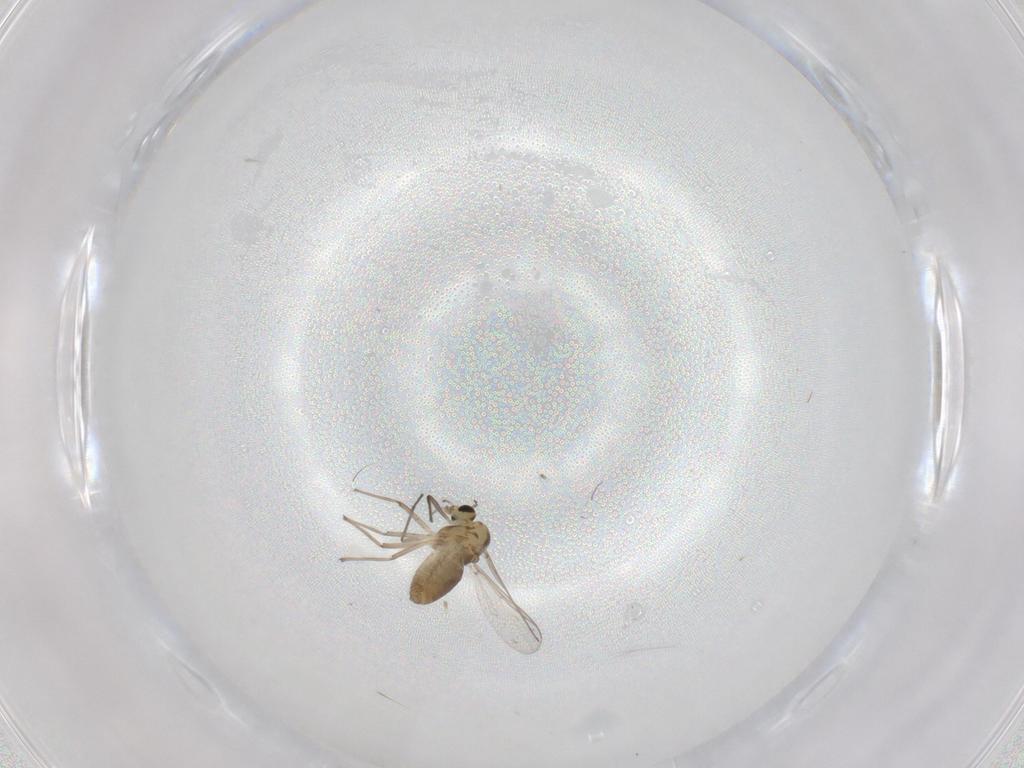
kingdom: Animalia
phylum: Arthropoda
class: Insecta
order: Diptera
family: Chironomidae
